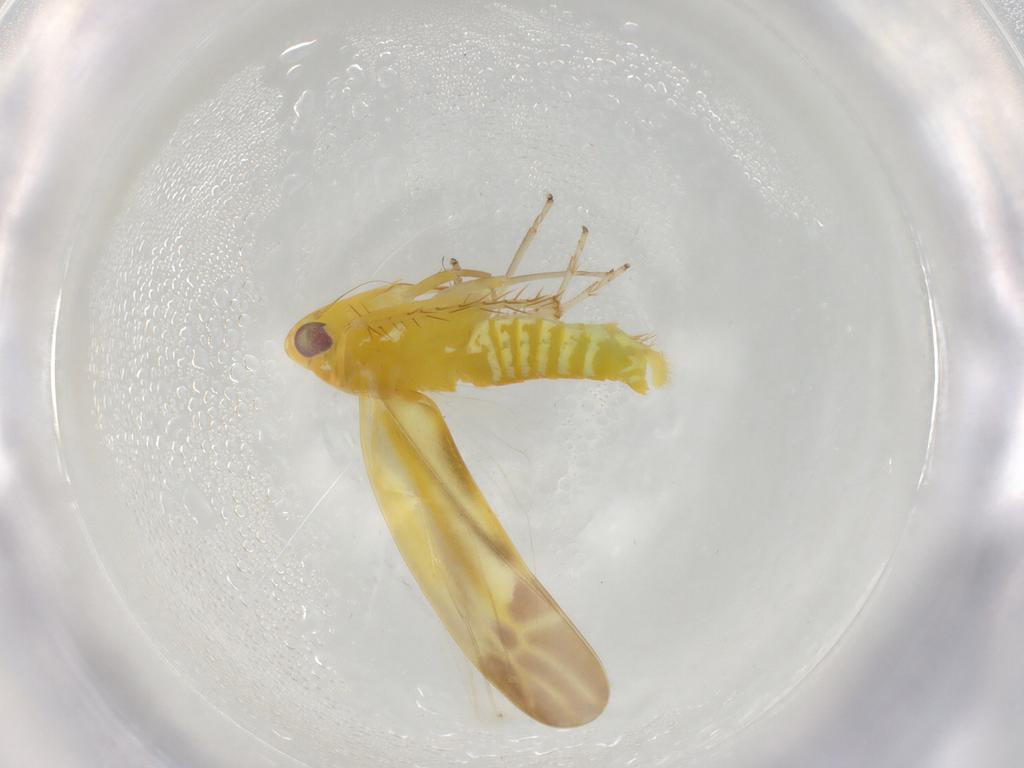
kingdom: Animalia
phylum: Arthropoda
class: Insecta
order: Hemiptera
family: Cicadellidae
